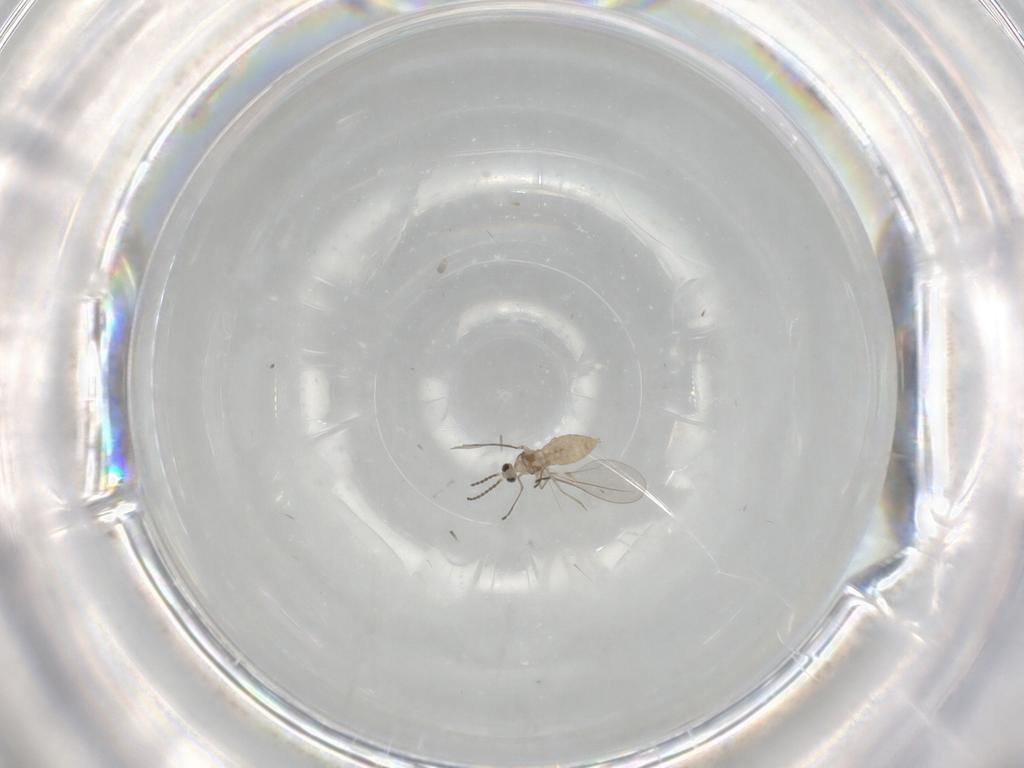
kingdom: Animalia
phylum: Arthropoda
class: Insecta
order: Diptera
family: Cecidomyiidae
